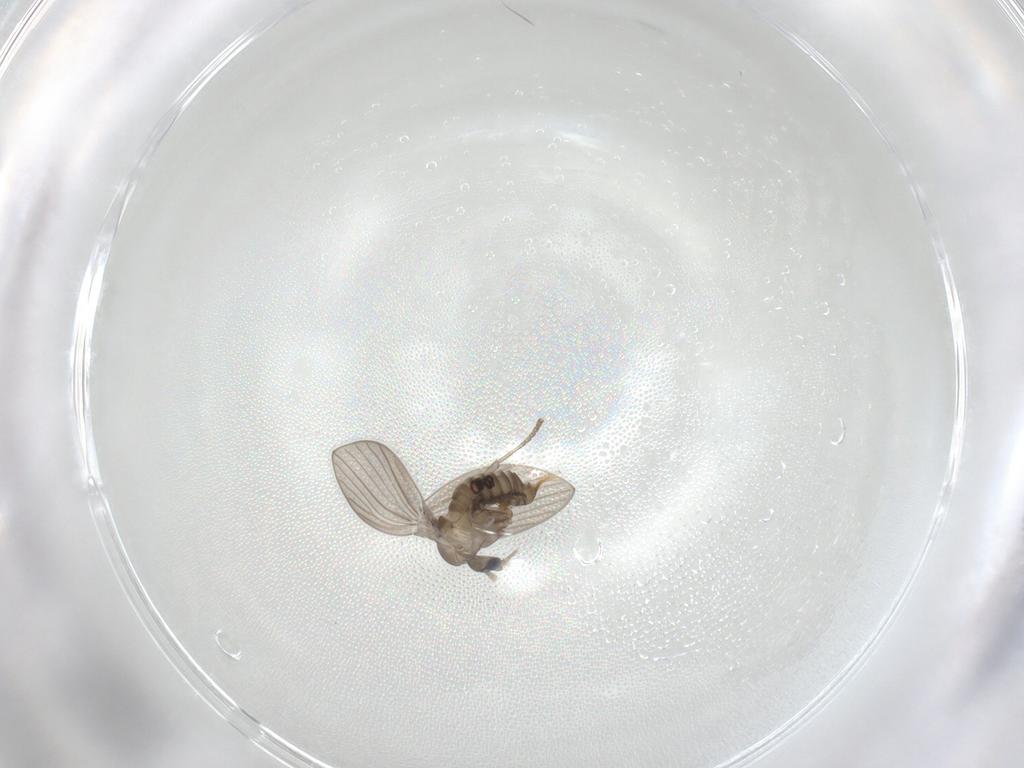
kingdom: Animalia
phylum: Arthropoda
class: Insecta
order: Diptera
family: Psychodidae
